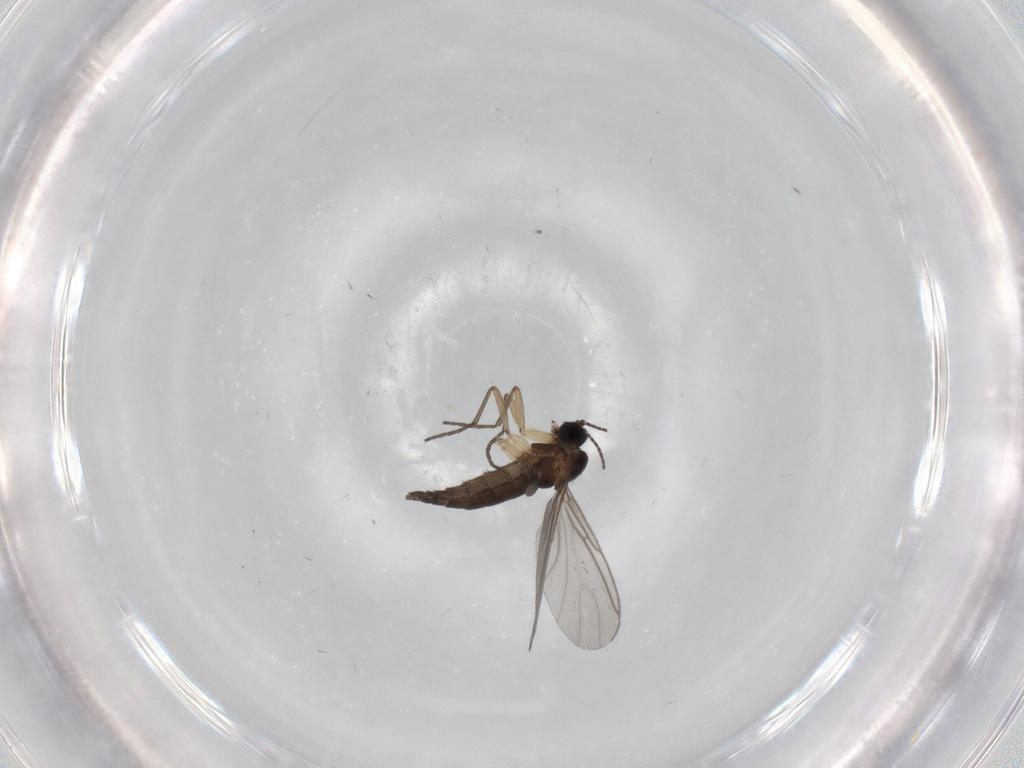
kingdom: Animalia
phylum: Arthropoda
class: Insecta
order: Diptera
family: Sciaridae
